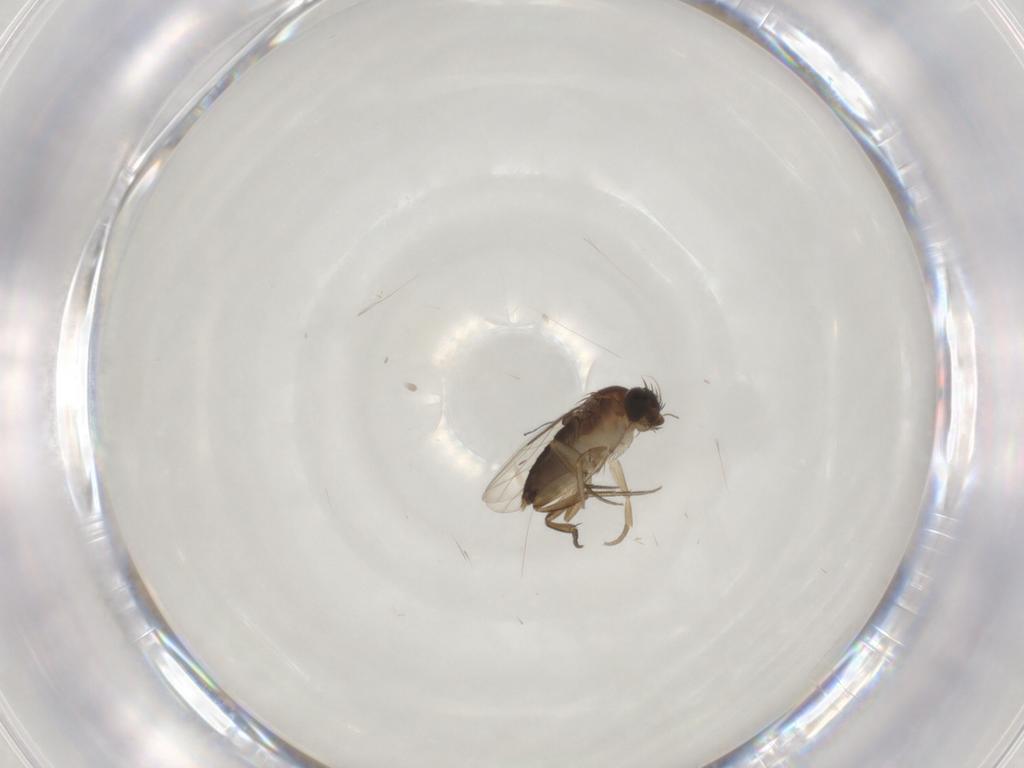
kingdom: Animalia
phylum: Arthropoda
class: Insecta
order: Diptera
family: Phoridae
